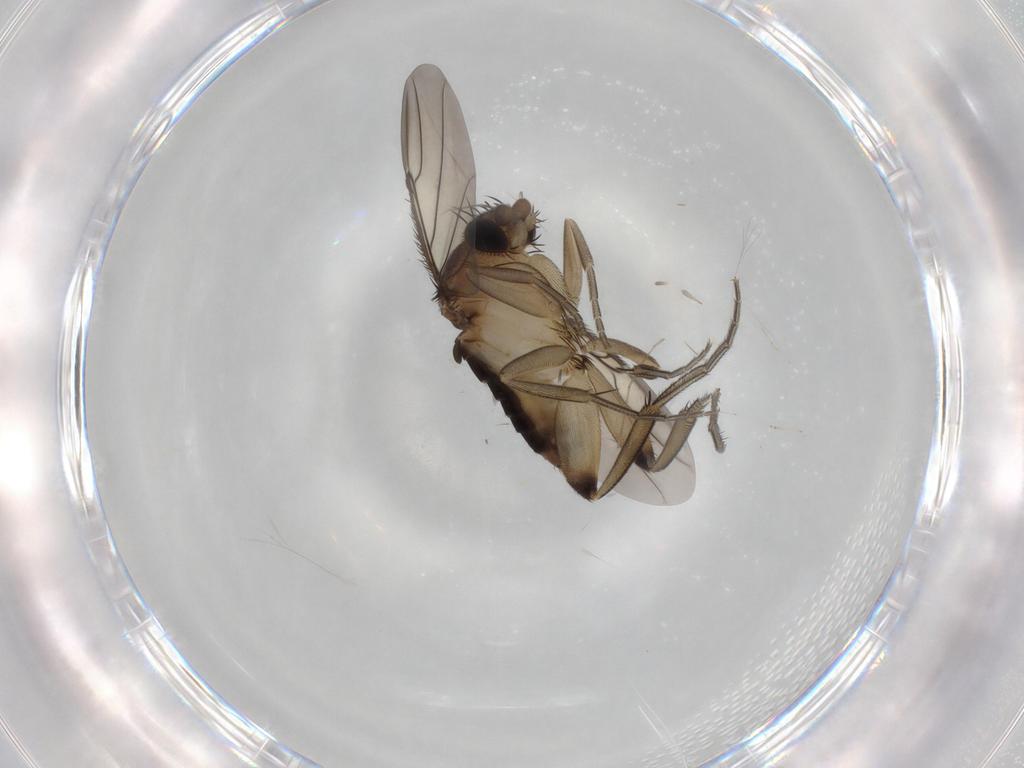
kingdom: Animalia
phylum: Arthropoda
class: Insecta
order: Diptera
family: Phoridae
